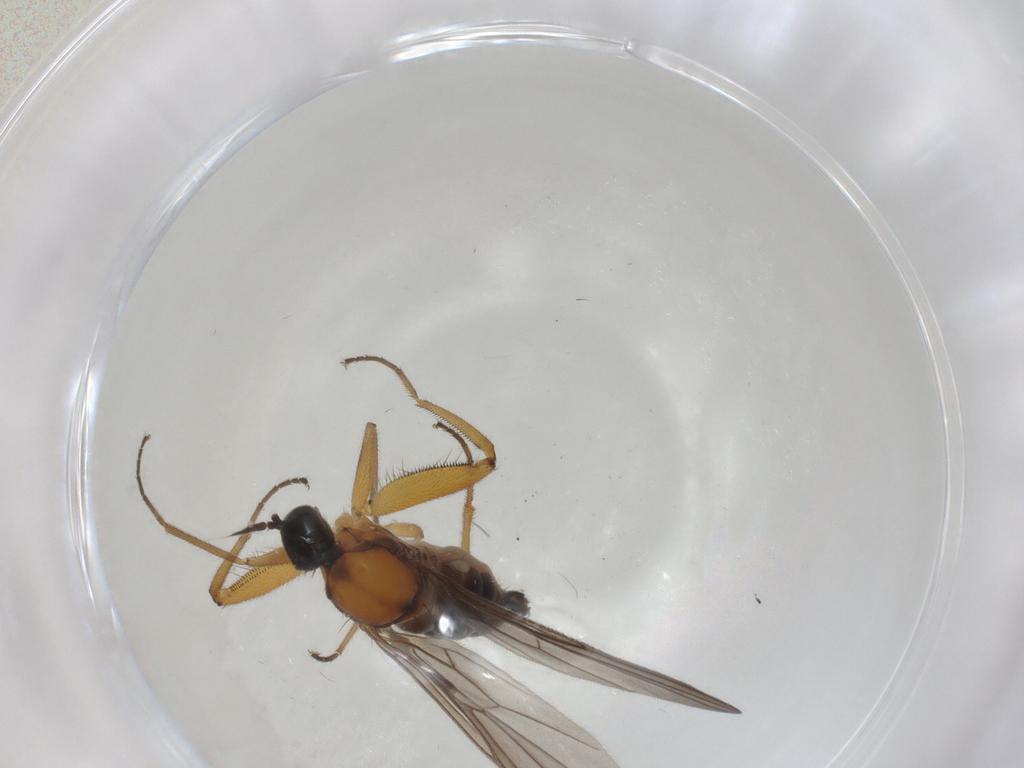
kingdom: Animalia
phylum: Arthropoda
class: Insecta
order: Diptera
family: Hybotidae
